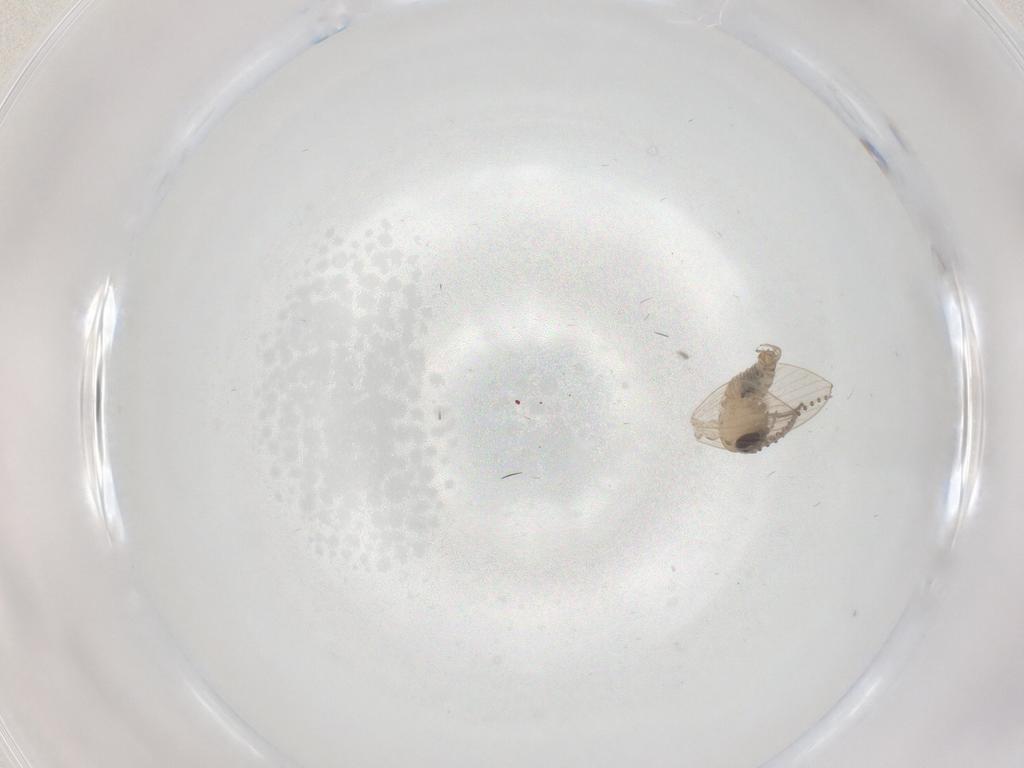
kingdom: Animalia
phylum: Arthropoda
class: Insecta
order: Diptera
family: Psychodidae
